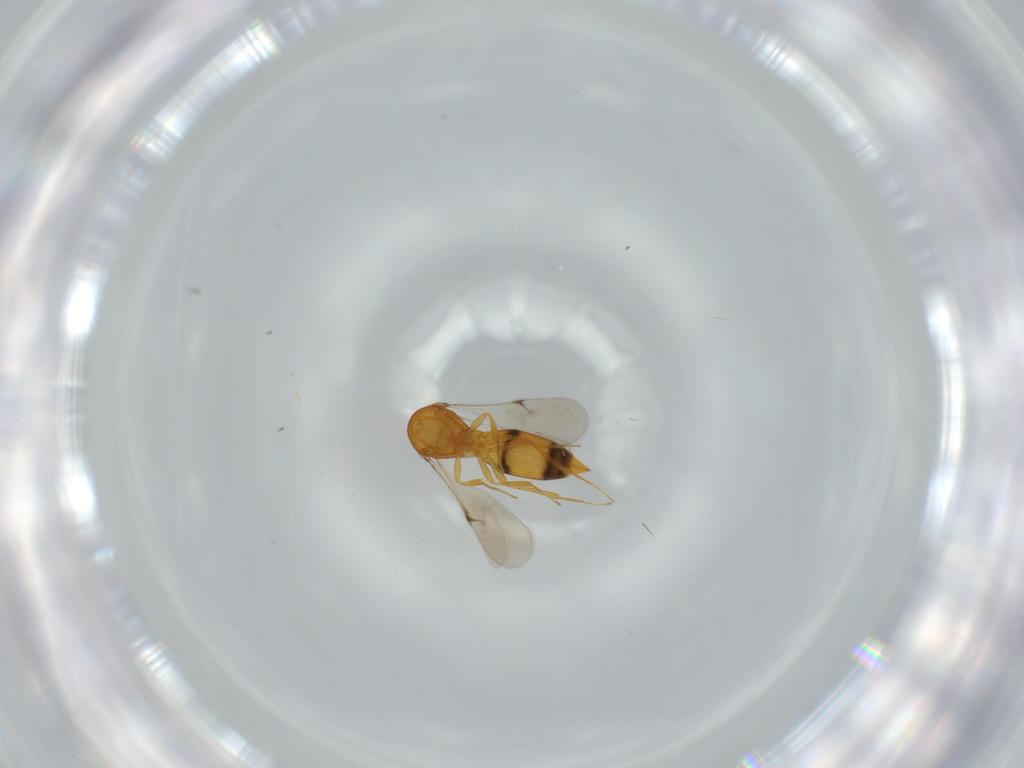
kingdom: Animalia
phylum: Arthropoda
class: Insecta
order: Hymenoptera
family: Scelionidae
